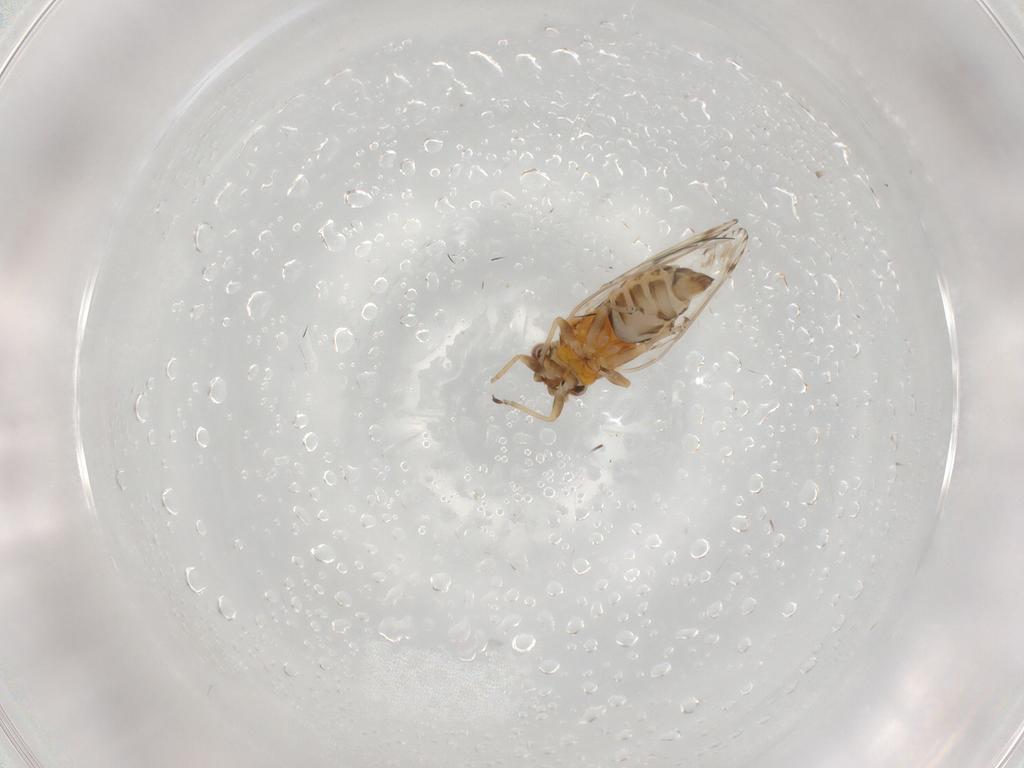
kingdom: Animalia
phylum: Arthropoda
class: Insecta
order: Hemiptera
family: Psyllidae
